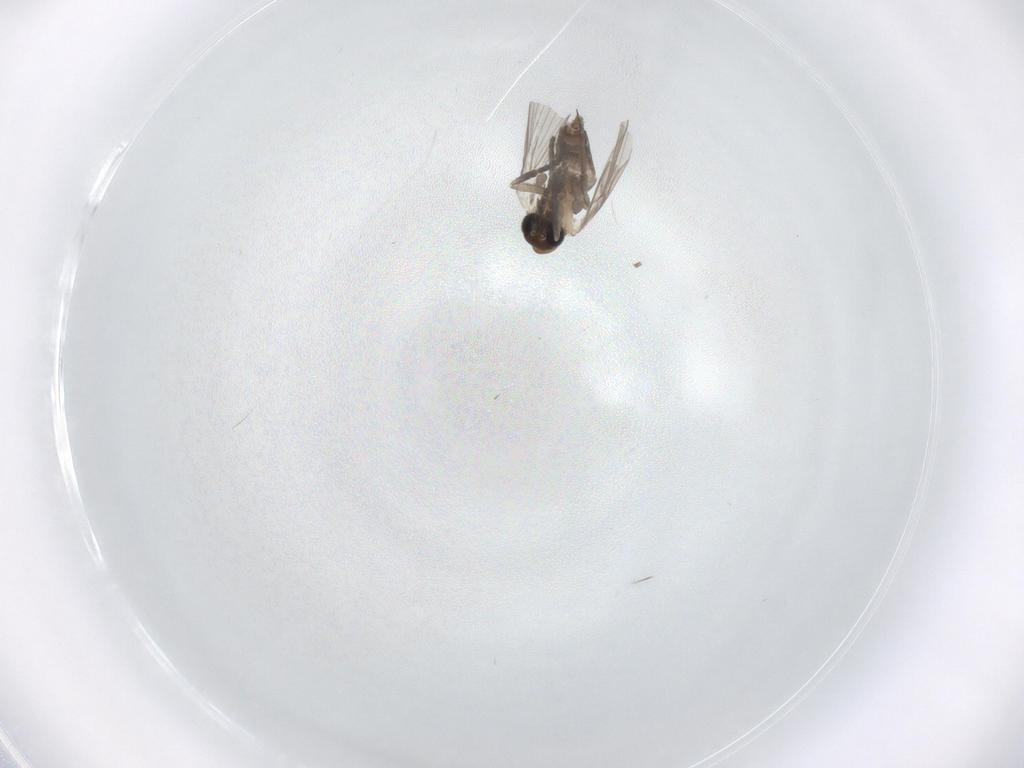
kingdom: Animalia
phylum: Arthropoda
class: Insecta
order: Diptera
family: Psychodidae
